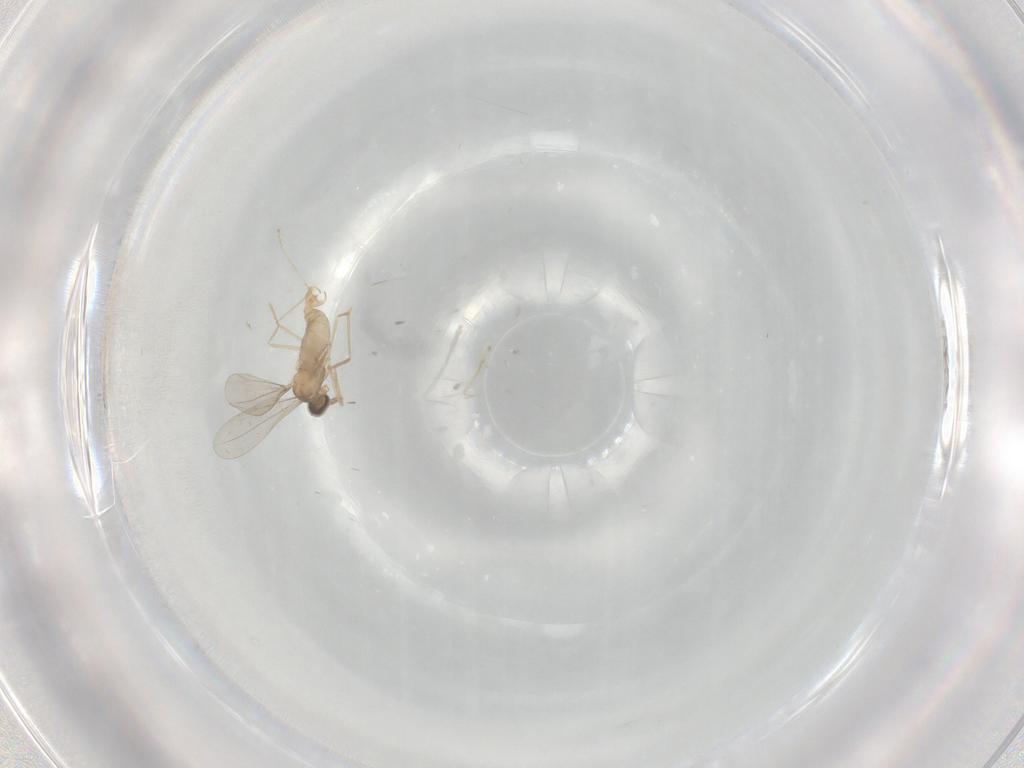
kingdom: Animalia
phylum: Arthropoda
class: Insecta
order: Diptera
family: Cecidomyiidae
